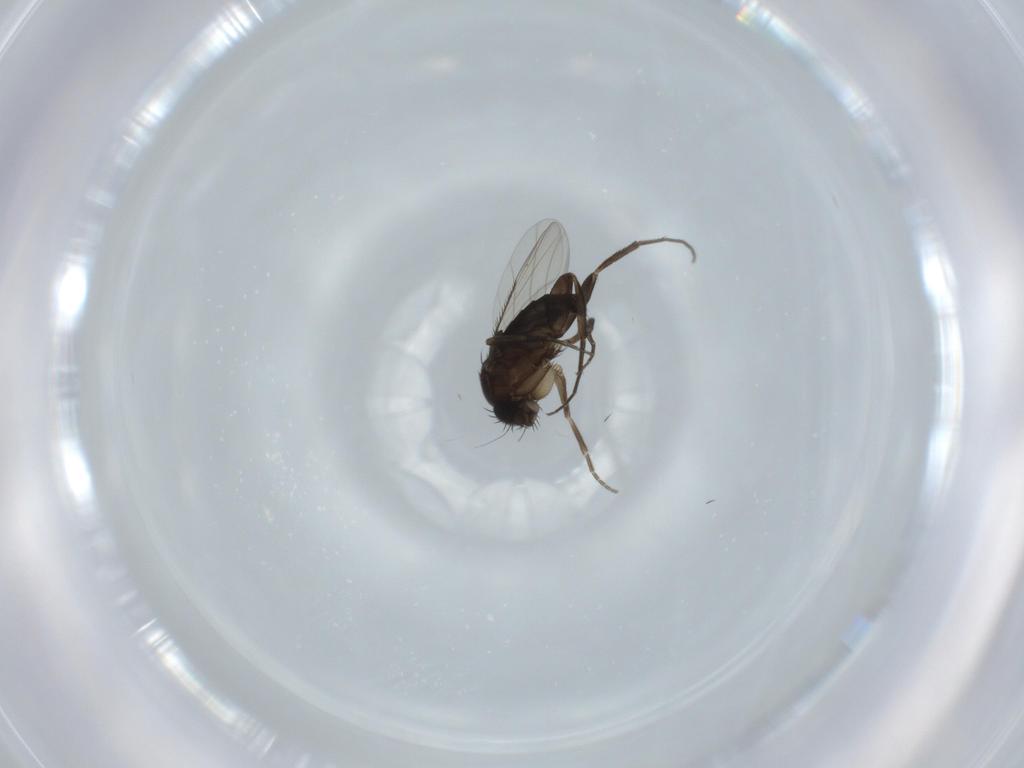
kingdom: Animalia
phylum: Arthropoda
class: Insecta
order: Diptera
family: Phoridae
